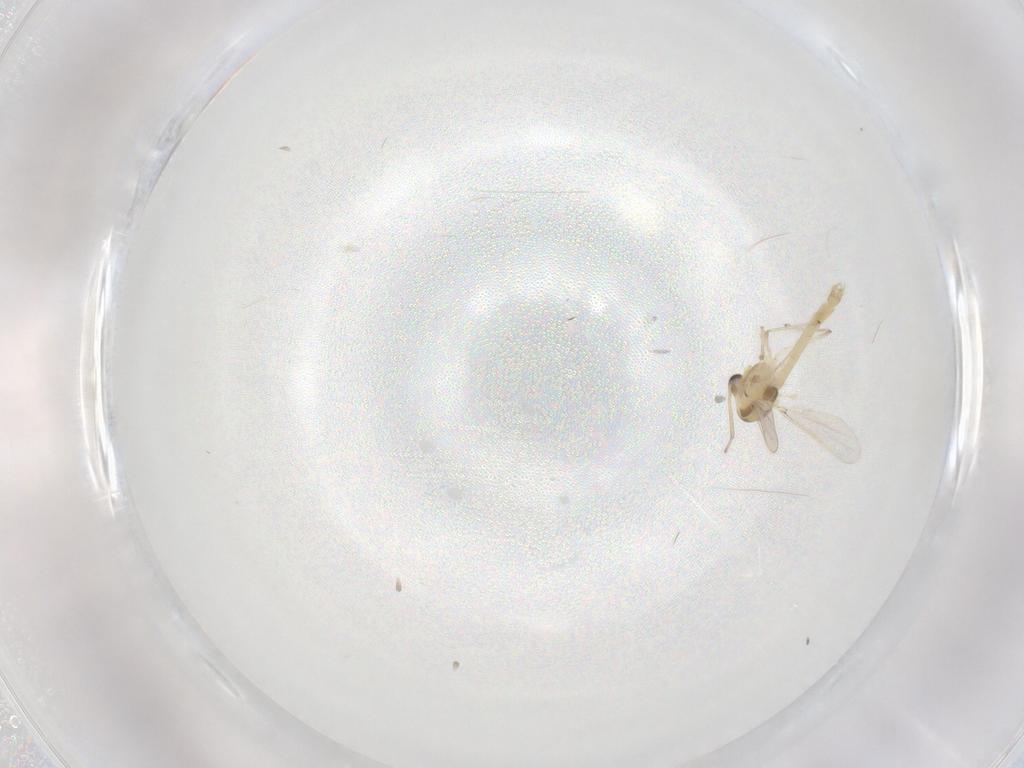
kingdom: Animalia
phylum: Arthropoda
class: Insecta
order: Diptera
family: Chironomidae
